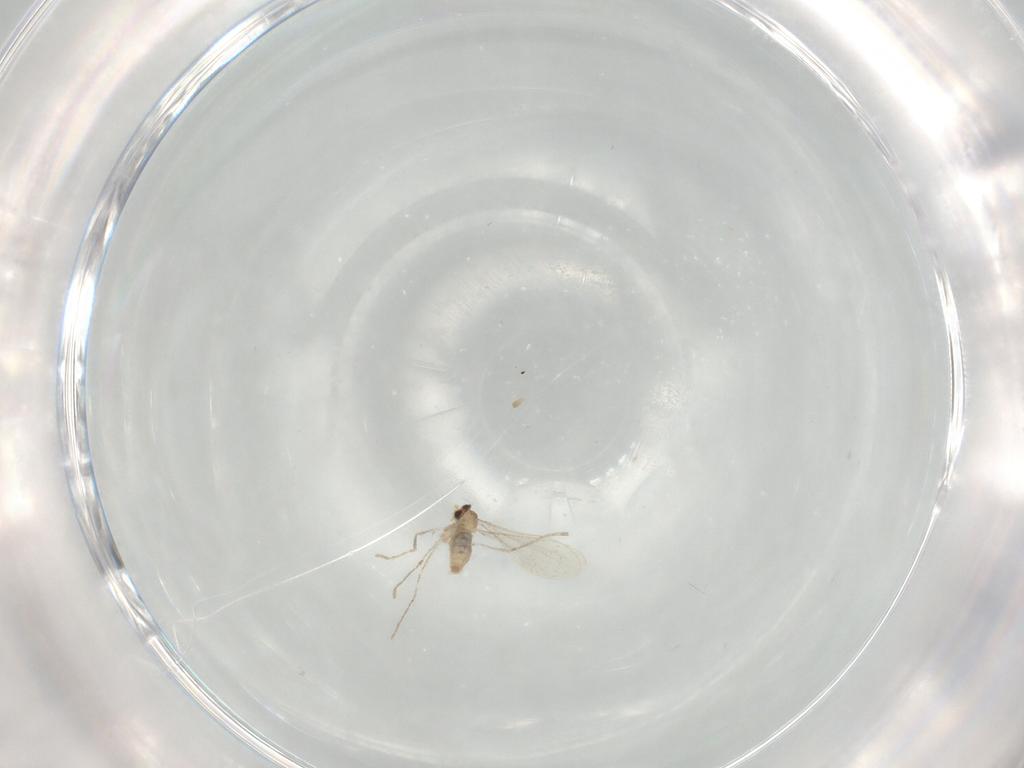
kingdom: Animalia
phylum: Arthropoda
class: Insecta
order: Diptera
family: Cecidomyiidae
